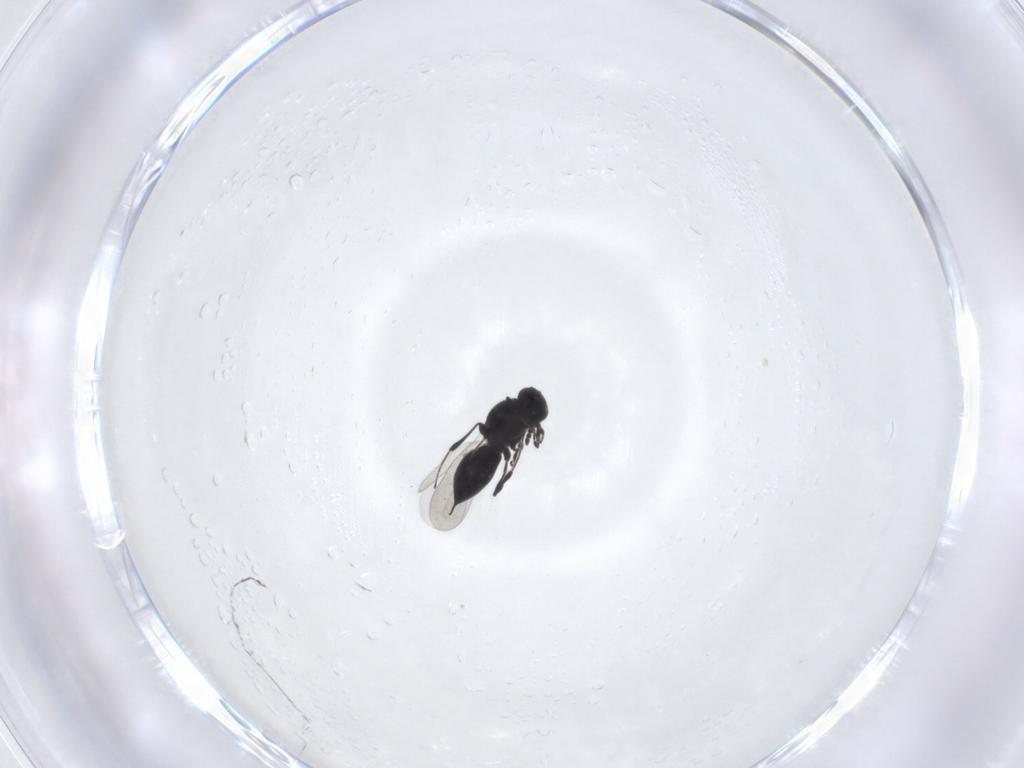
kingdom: Animalia
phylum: Arthropoda
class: Insecta
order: Hymenoptera
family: Platygastridae
